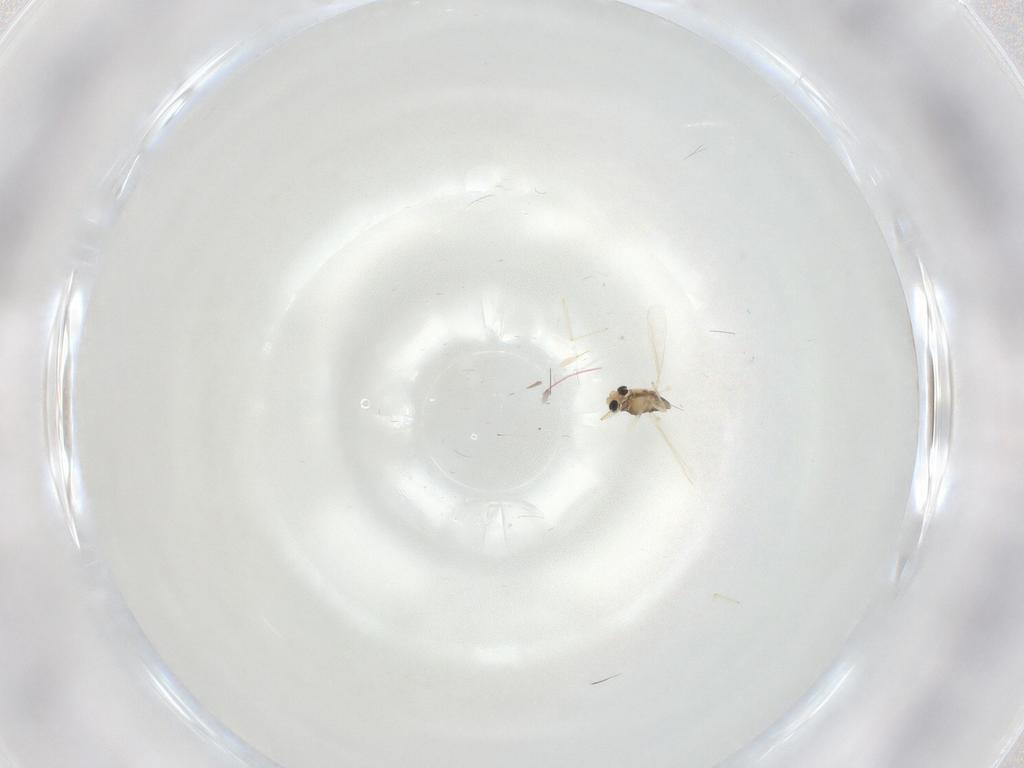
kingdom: Animalia
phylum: Arthropoda
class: Insecta
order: Diptera
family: Chironomidae
